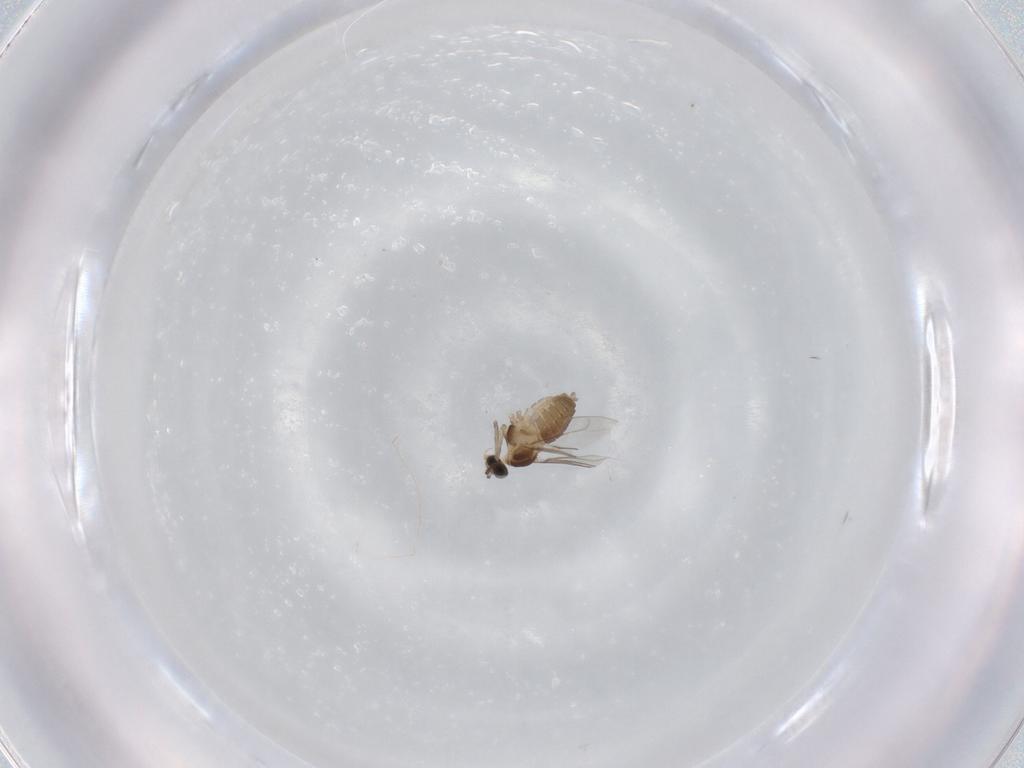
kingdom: Animalia
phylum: Arthropoda
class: Insecta
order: Diptera
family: Cecidomyiidae
